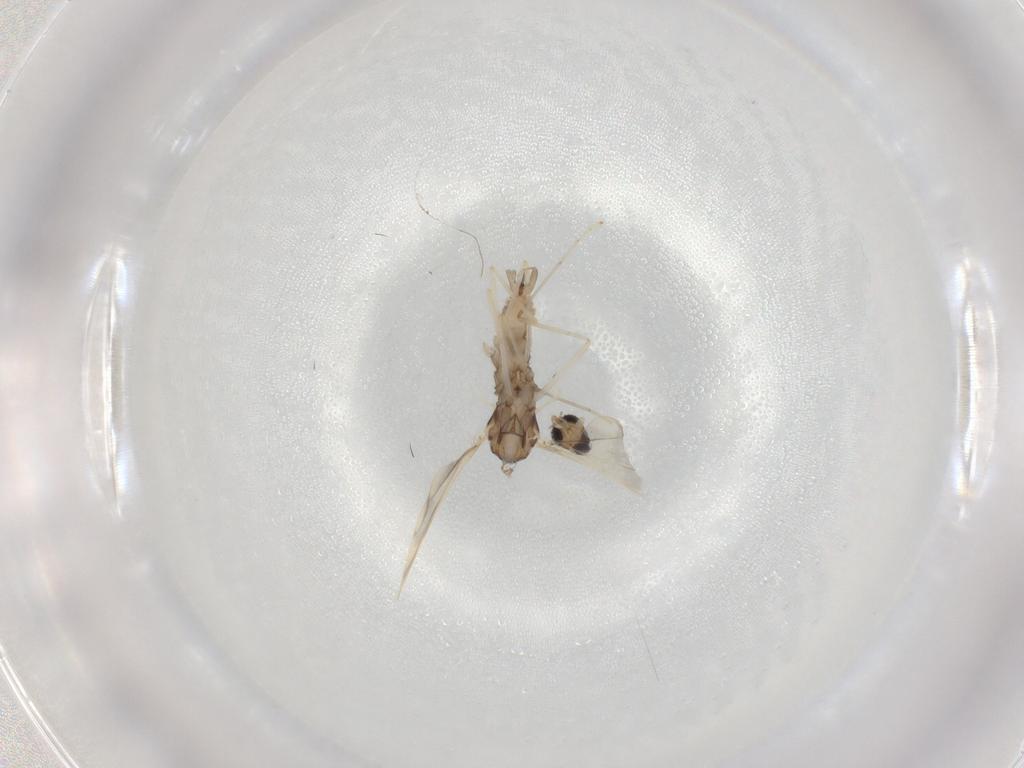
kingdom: Animalia
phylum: Arthropoda
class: Insecta
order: Diptera
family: Cecidomyiidae
